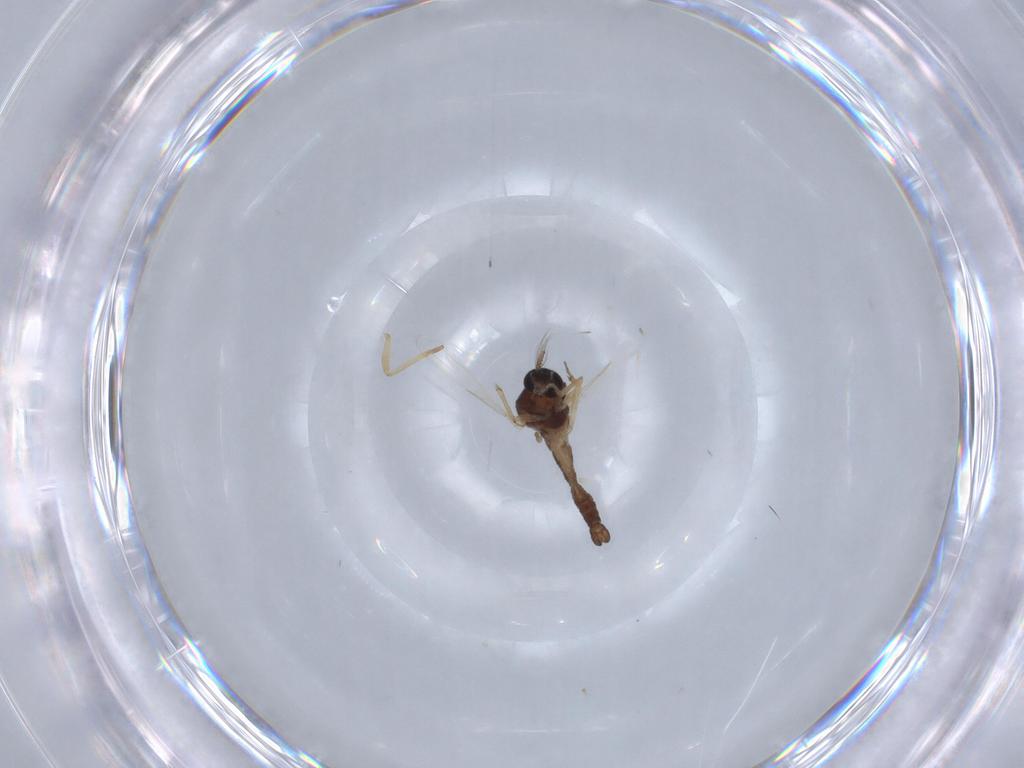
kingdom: Animalia
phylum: Arthropoda
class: Insecta
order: Diptera
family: Ceratopogonidae
